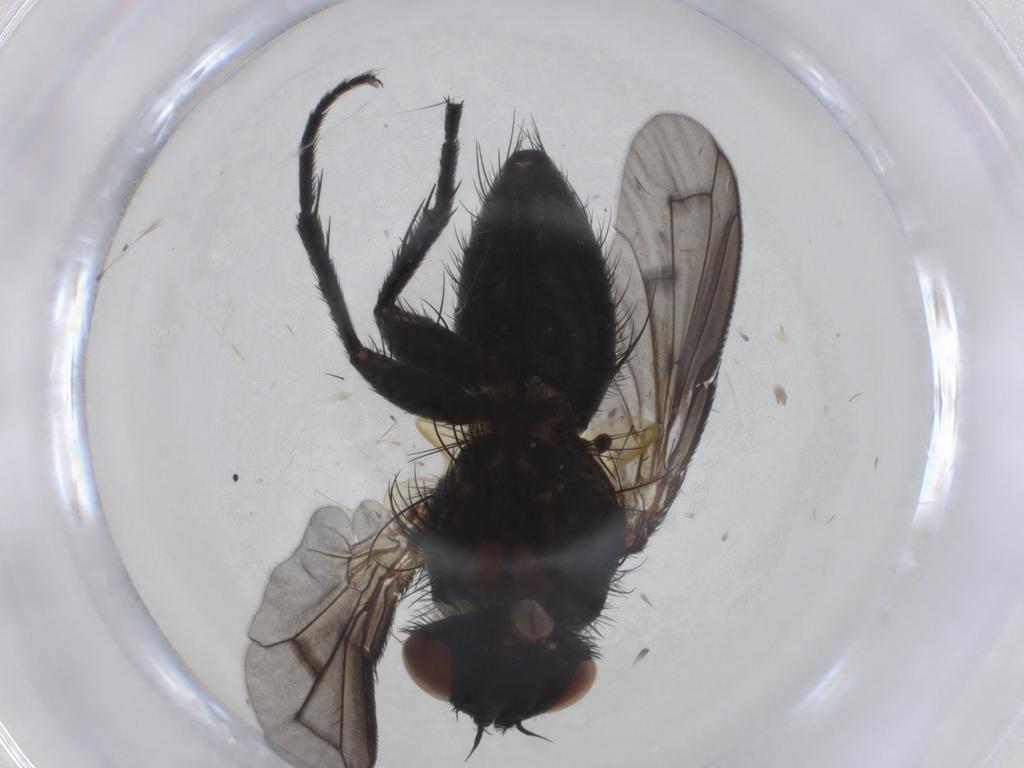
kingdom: Animalia
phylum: Arthropoda
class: Insecta
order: Diptera
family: Tachinidae
